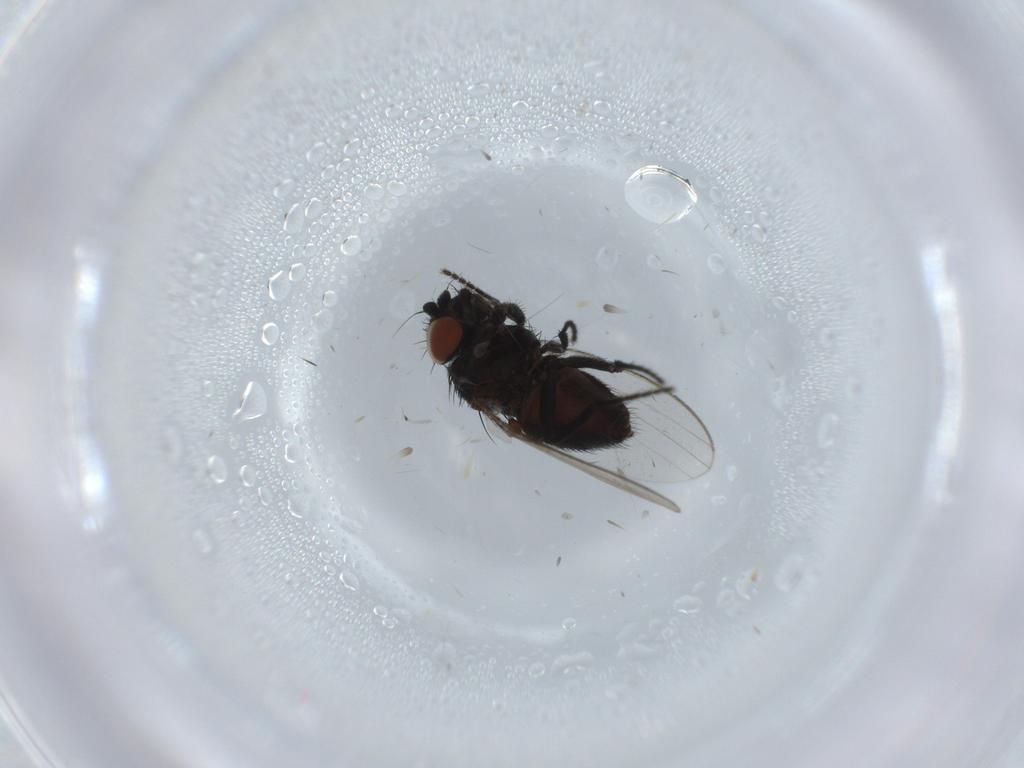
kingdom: Animalia
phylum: Arthropoda
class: Insecta
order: Diptera
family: Milichiidae
